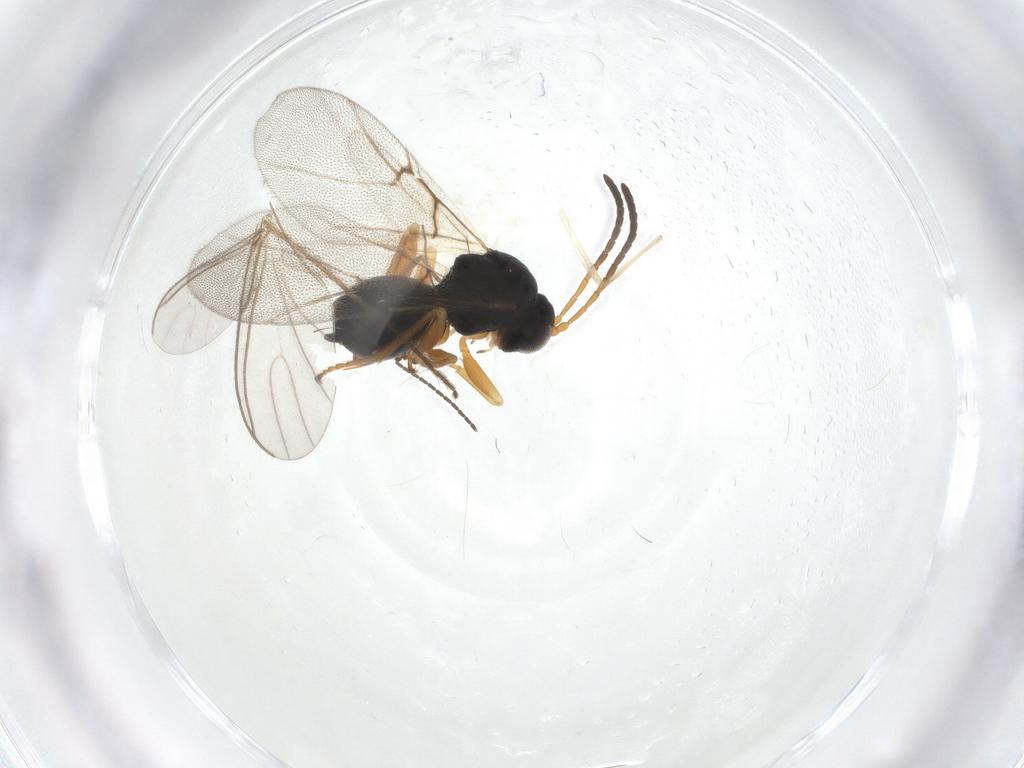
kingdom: Animalia
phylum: Arthropoda
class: Insecta
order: Hymenoptera
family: Cynipidae
